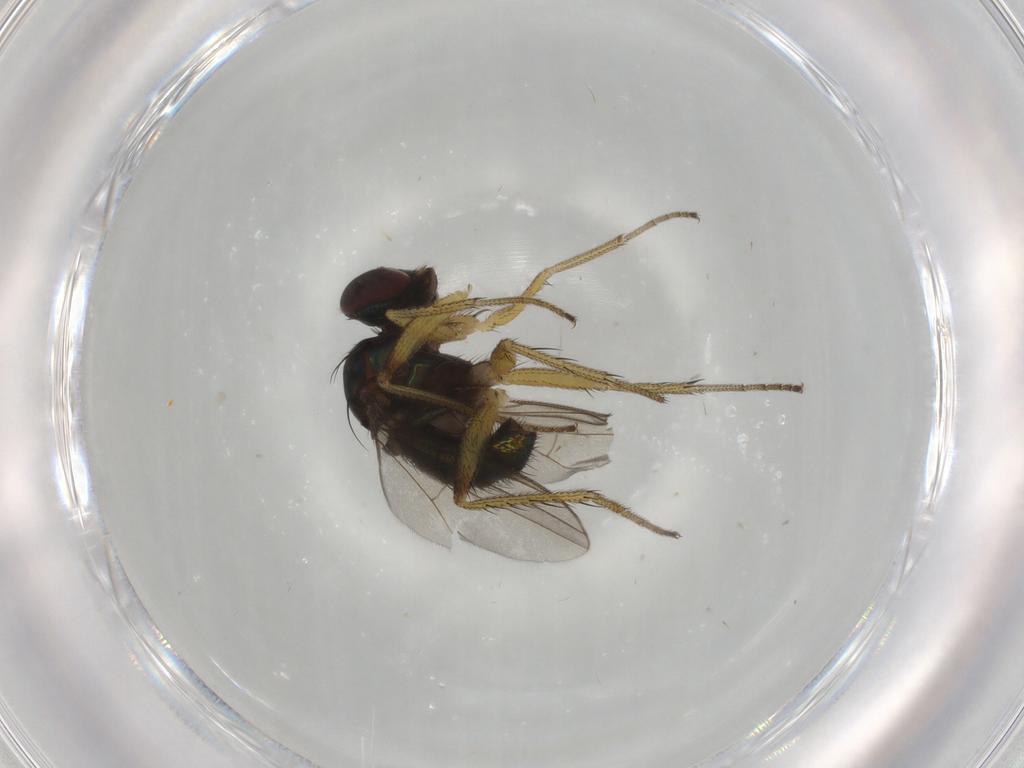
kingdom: Animalia
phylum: Arthropoda
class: Insecta
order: Diptera
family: Dolichopodidae
